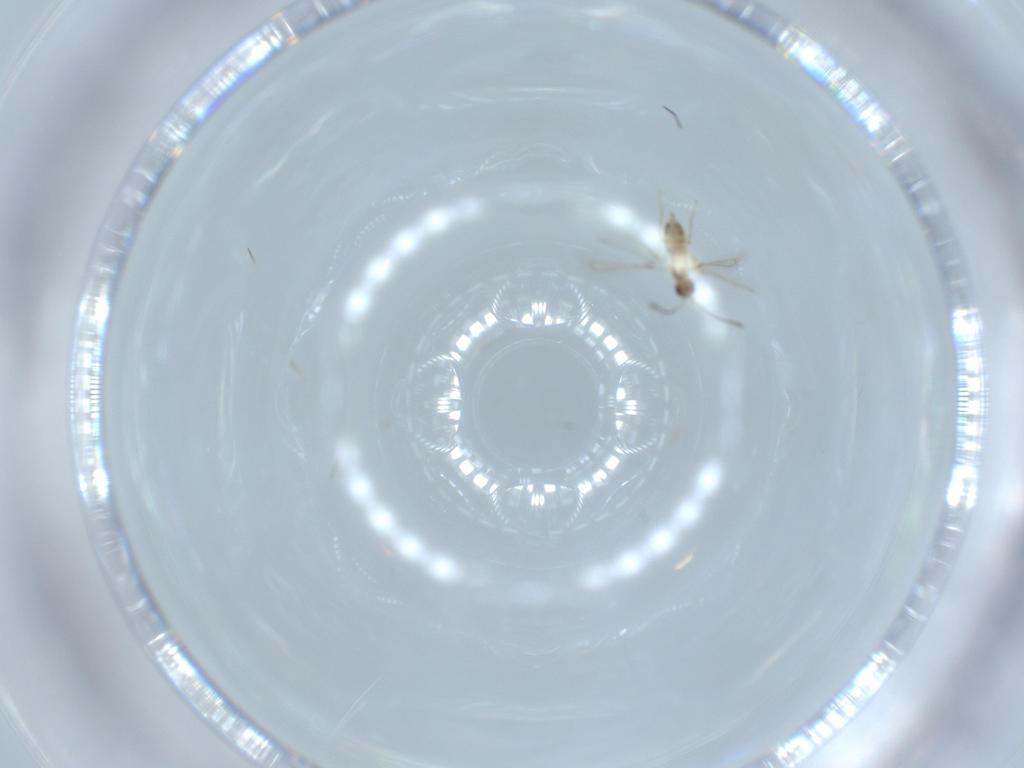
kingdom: Animalia
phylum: Arthropoda
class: Insecta
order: Hymenoptera
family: Mymaridae
